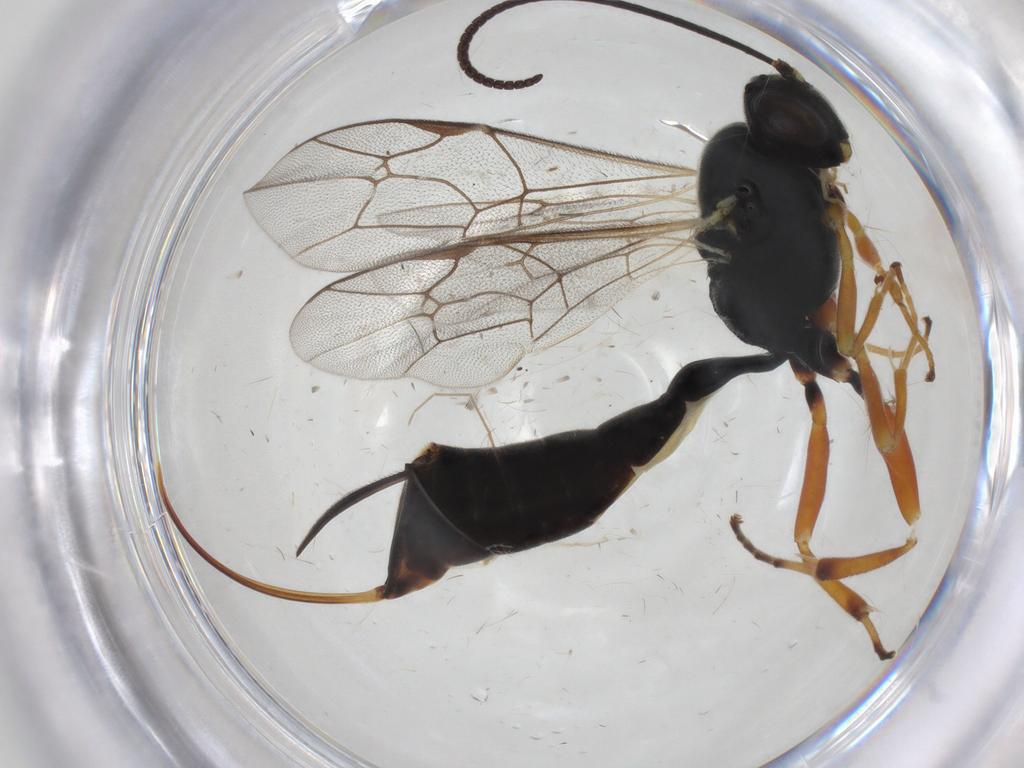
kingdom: Animalia
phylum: Arthropoda
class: Insecta
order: Hymenoptera
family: Ichneumonidae
